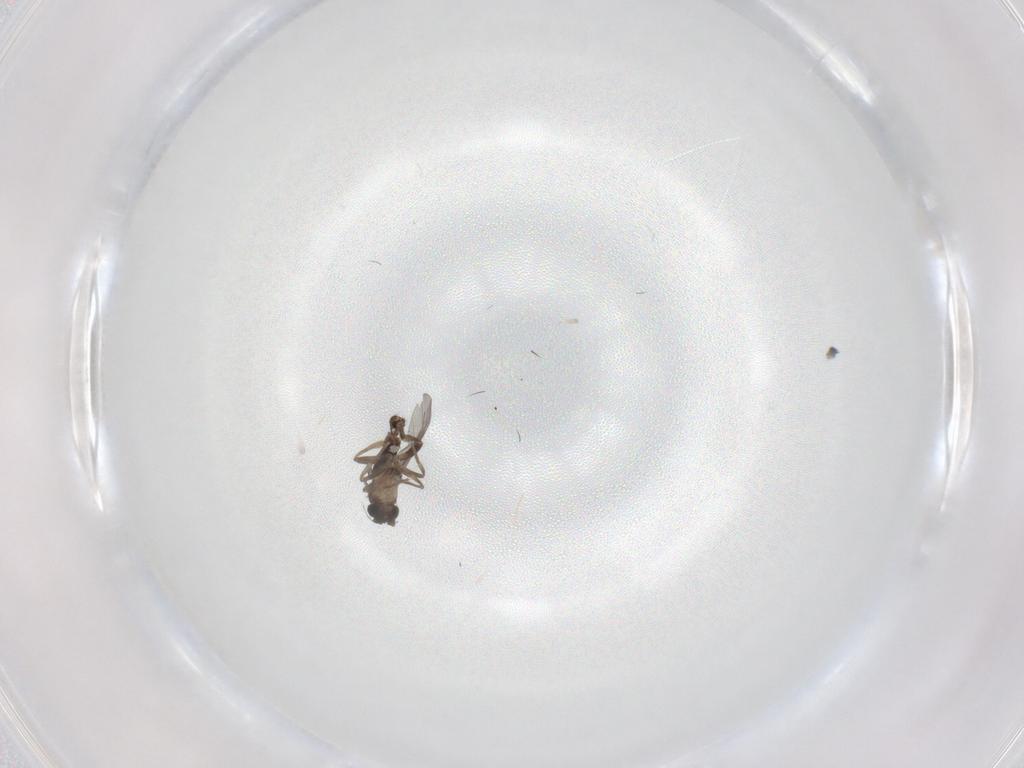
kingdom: Animalia
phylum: Arthropoda
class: Insecta
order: Diptera
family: Phoridae
